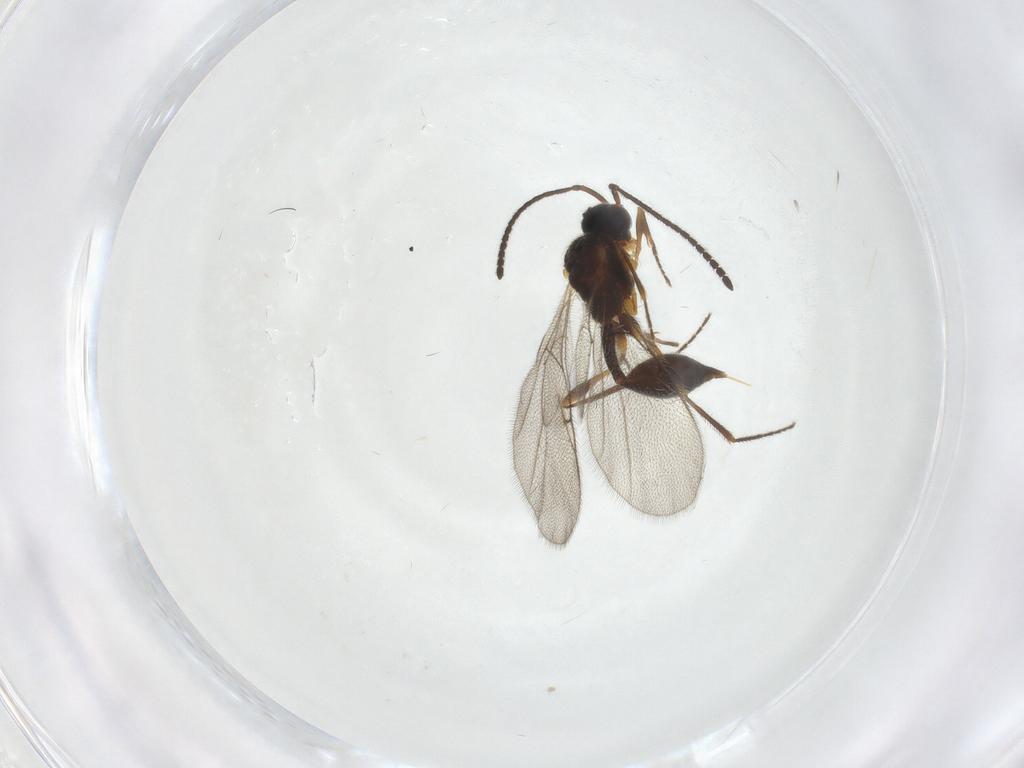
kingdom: Animalia
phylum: Arthropoda
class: Insecta
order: Hymenoptera
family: Diapriidae
